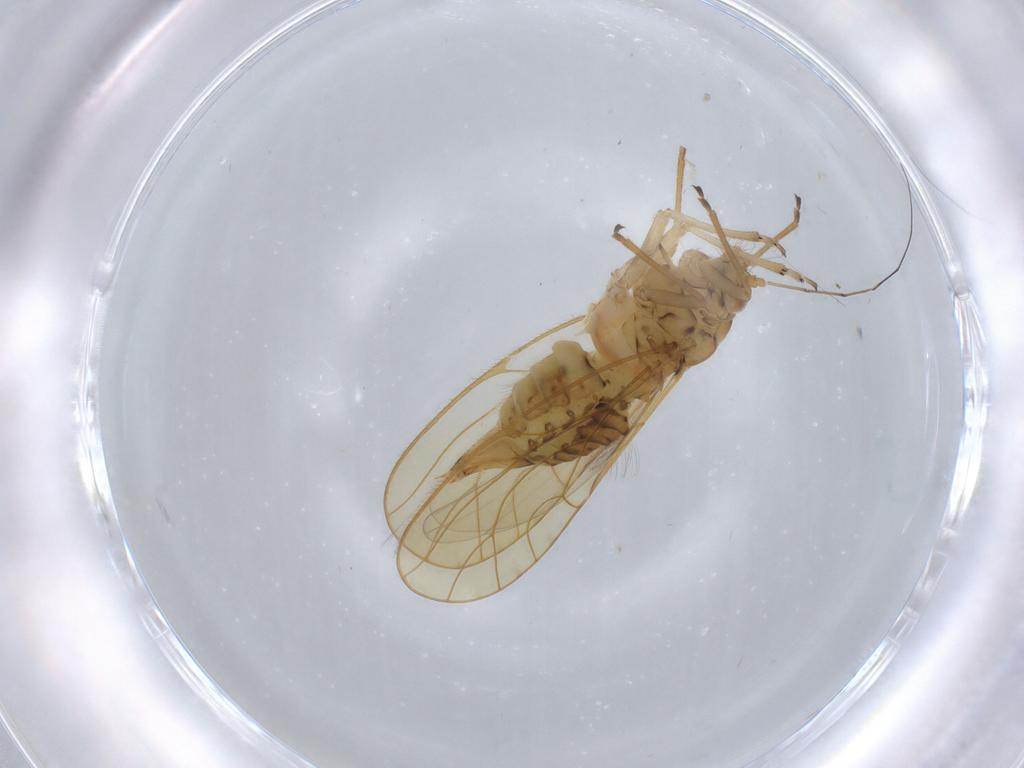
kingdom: Animalia
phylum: Arthropoda
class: Insecta
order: Hemiptera
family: Psyllidae
